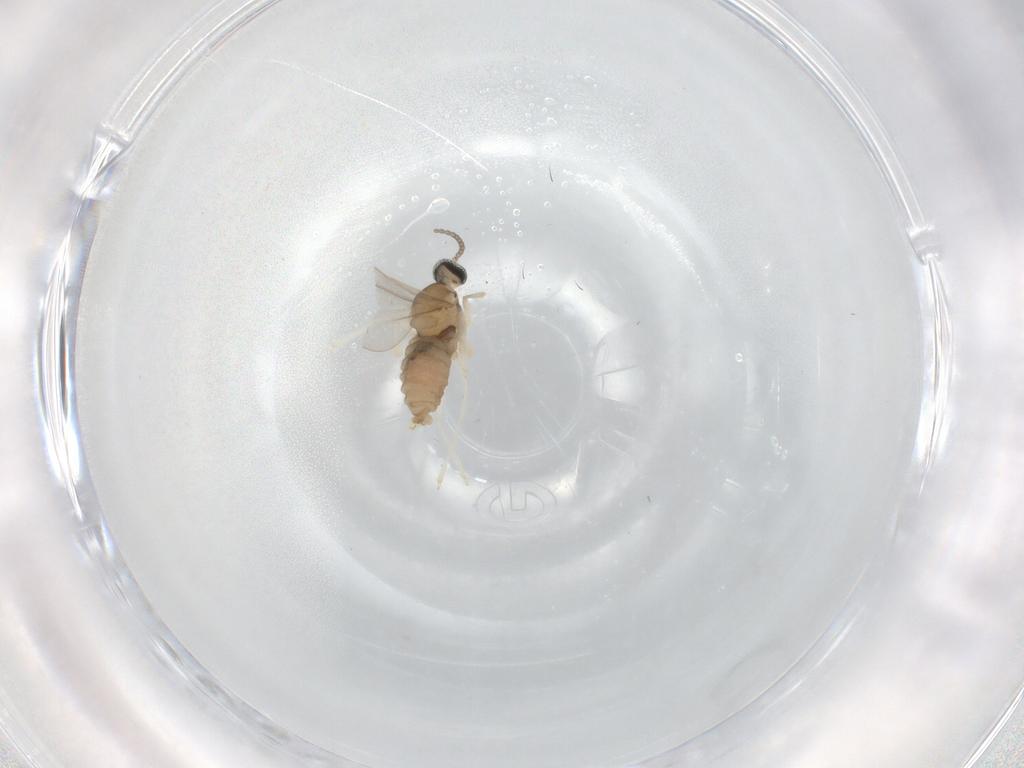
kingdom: Animalia
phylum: Arthropoda
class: Insecta
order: Diptera
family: Cecidomyiidae
